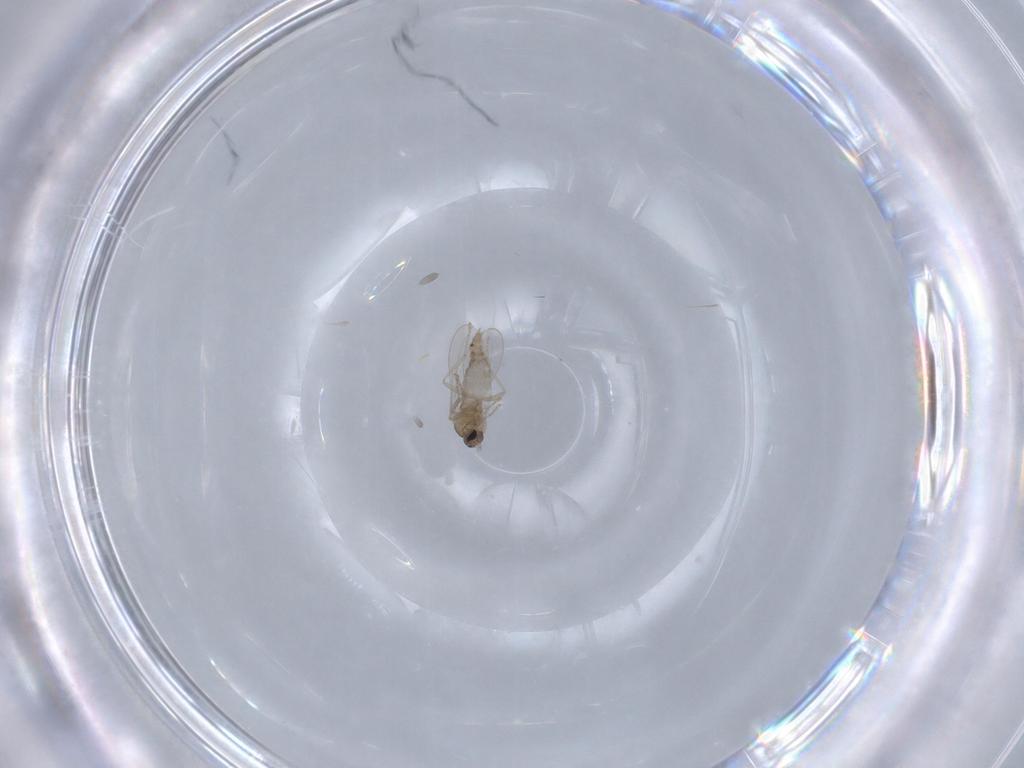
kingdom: Animalia
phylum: Arthropoda
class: Insecta
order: Diptera
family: Cecidomyiidae
